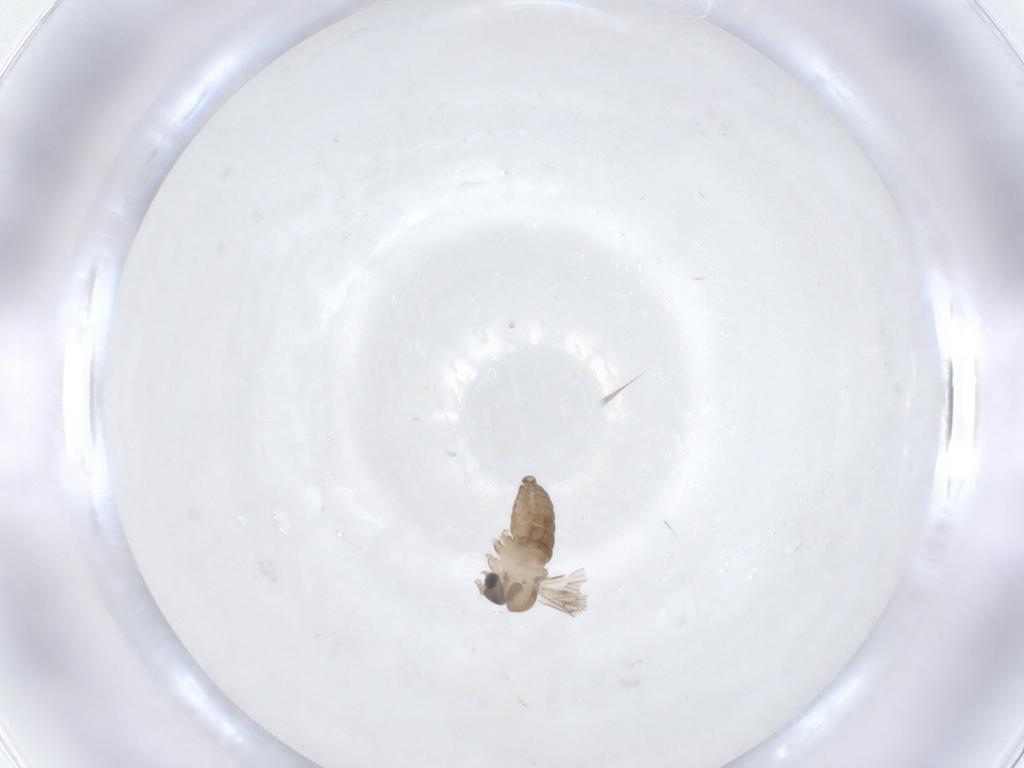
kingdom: Animalia
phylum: Arthropoda
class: Insecta
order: Diptera
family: Psychodidae
